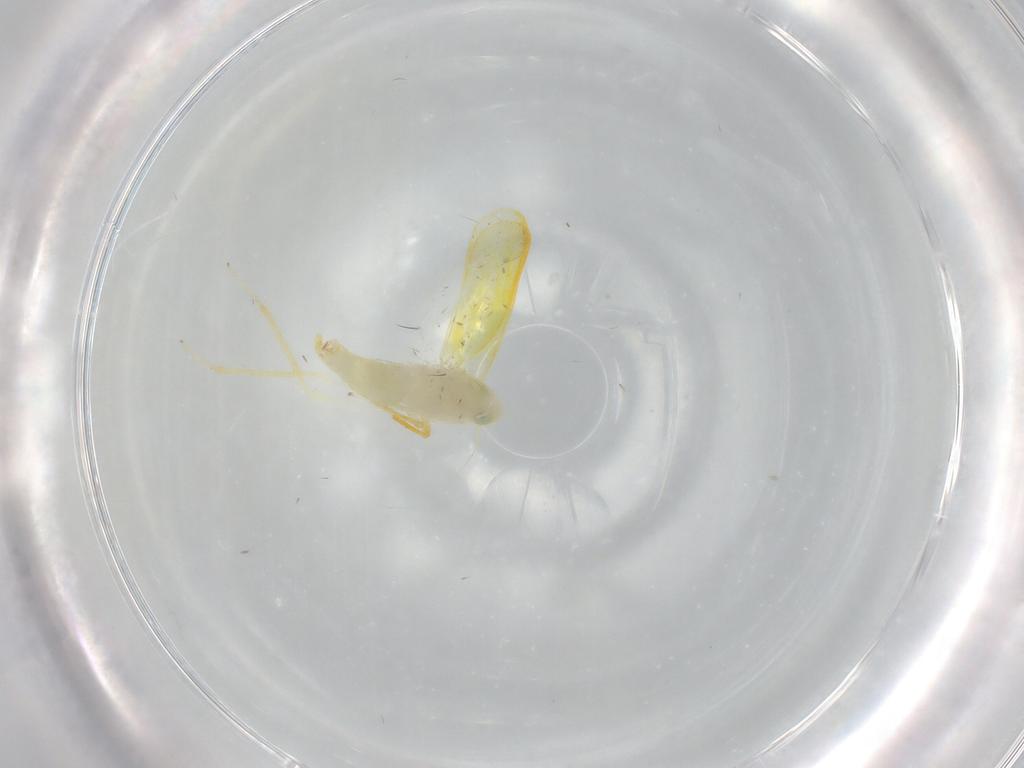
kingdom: Animalia
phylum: Arthropoda
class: Insecta
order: Hemiptera
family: Cicadellidae
